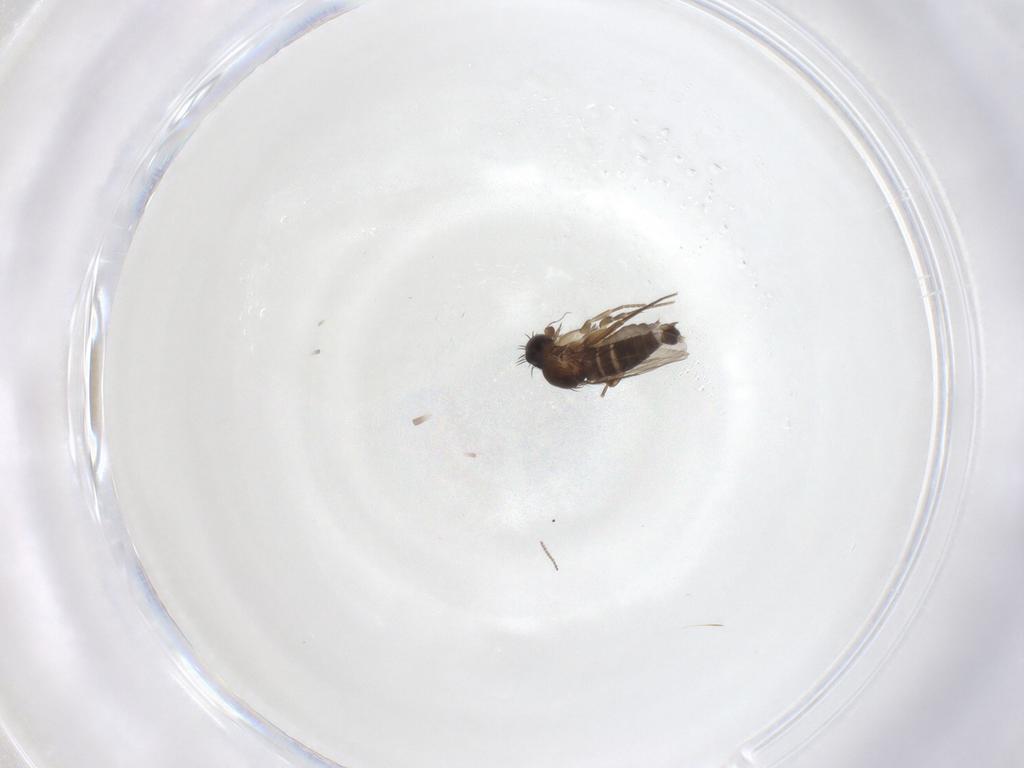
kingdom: Animalia
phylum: Arthropoda
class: Insecta
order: Diptera
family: Phoridae
